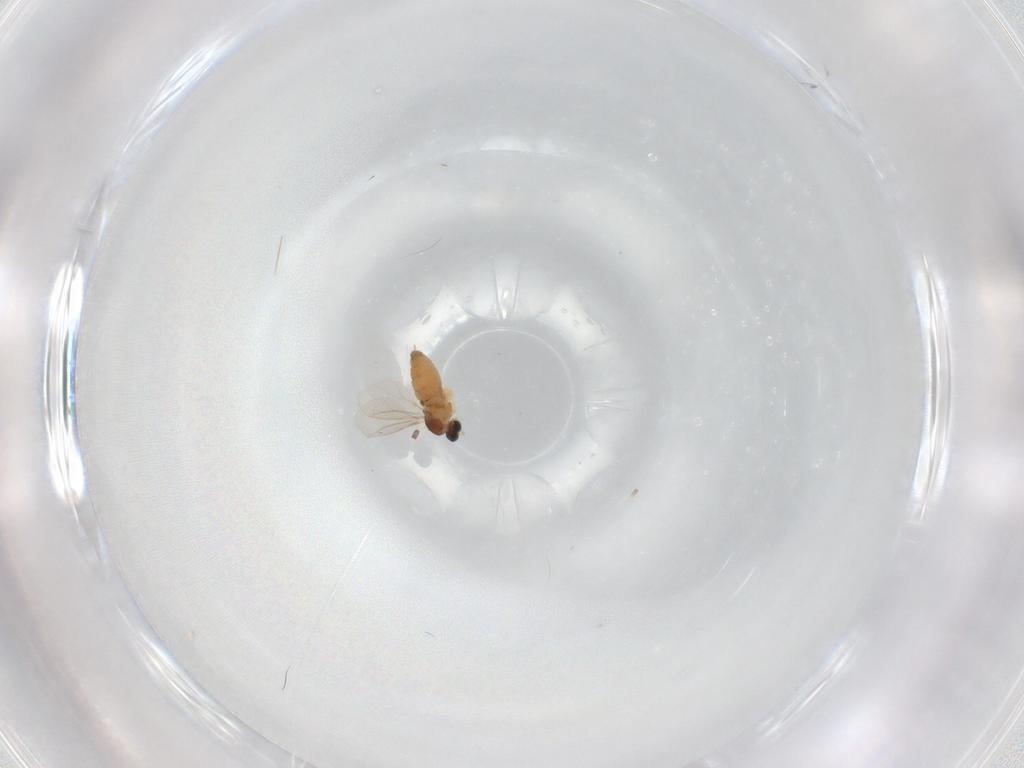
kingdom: Animalia
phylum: Arthropoda
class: Insecta
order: Diptera
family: Cecidomyiidae
